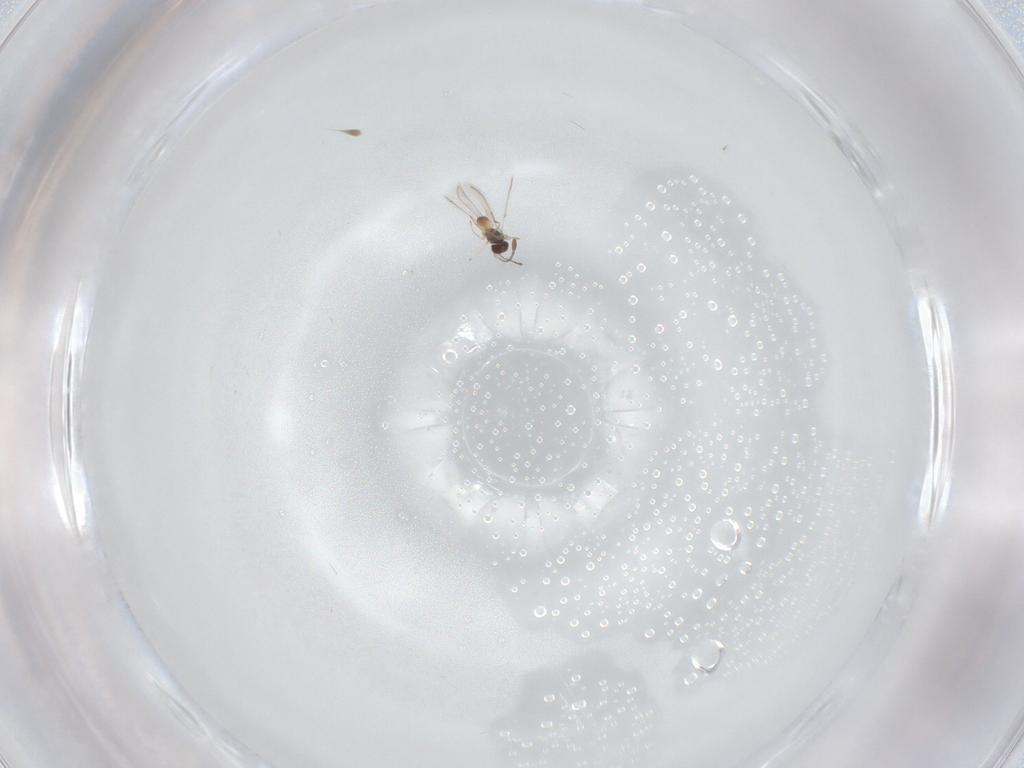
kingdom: Animalia
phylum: Arthropoda
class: Insecta
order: Hymenoptera
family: Mymaridae
